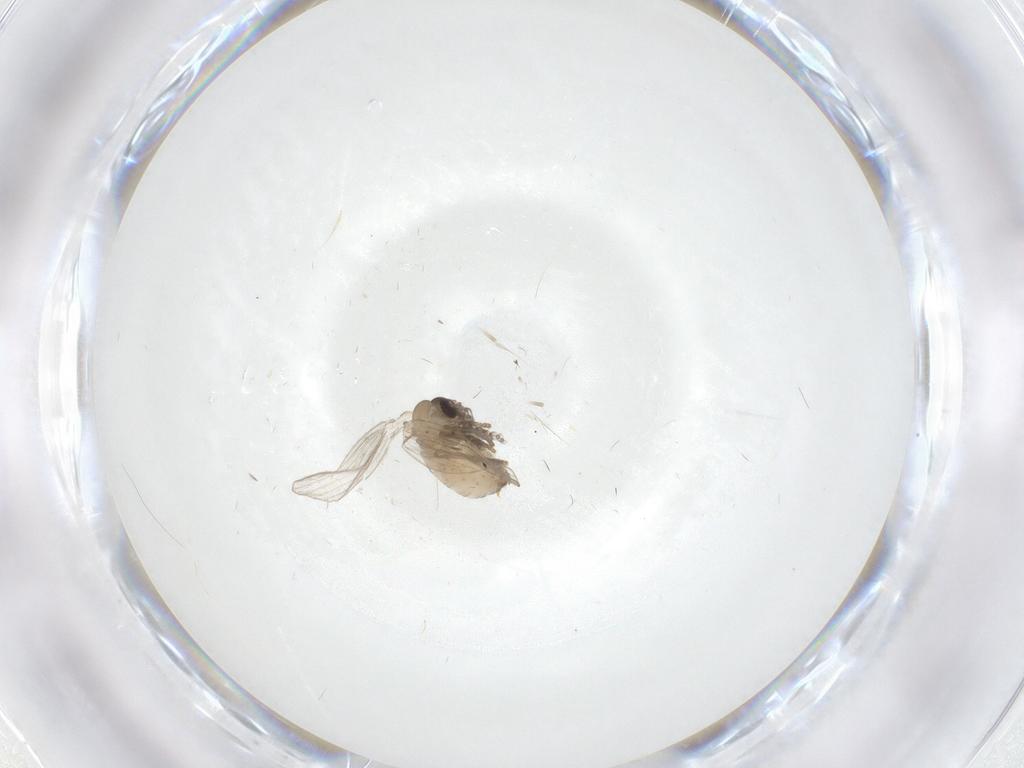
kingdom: Animalia
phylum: Arthropoda
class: Insecta
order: Diptera
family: Psychodidae
